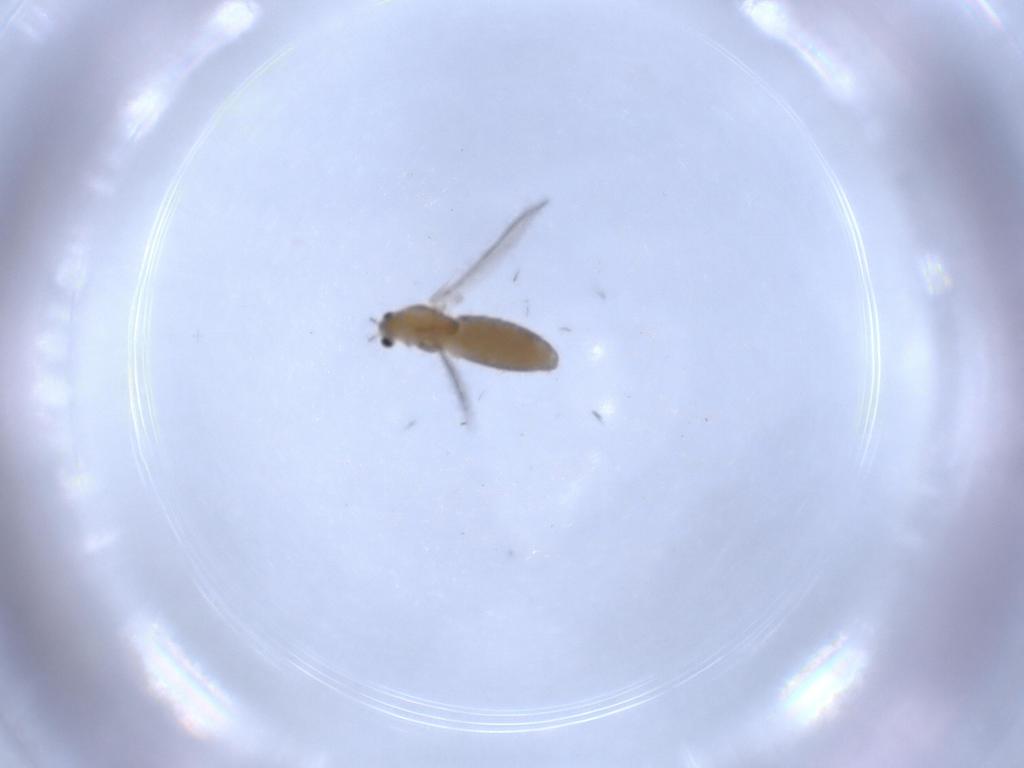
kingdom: Animalia
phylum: Arthropoda
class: Insecta
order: Diptera
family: Chironomidae
